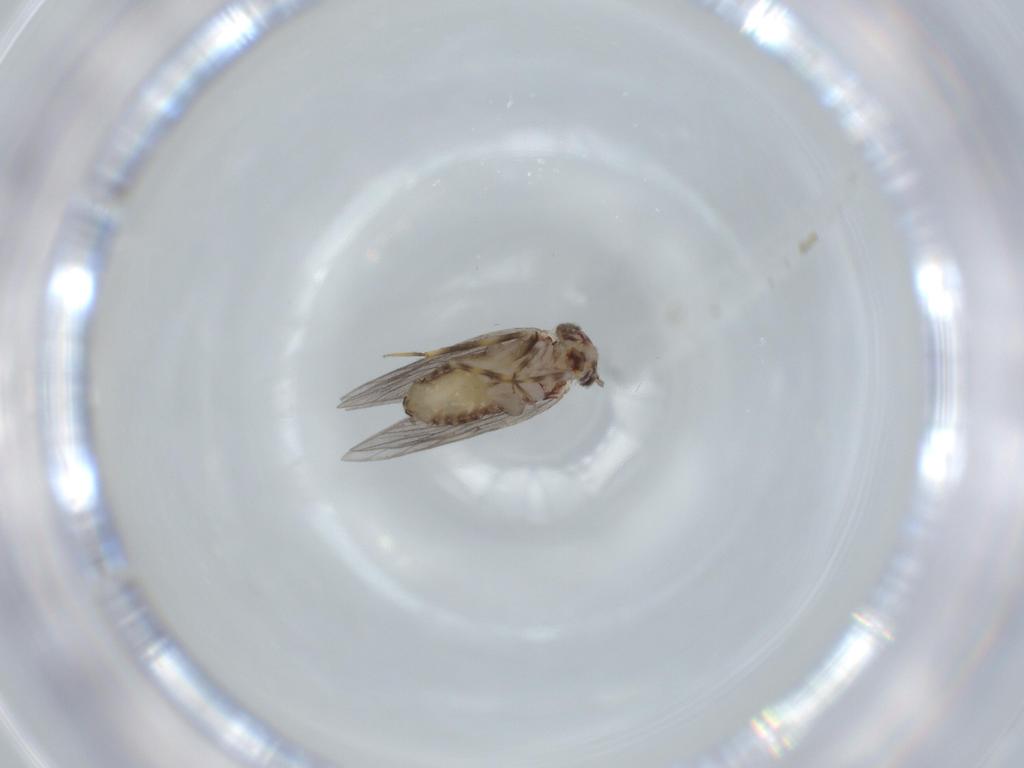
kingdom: Animalia
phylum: Arthropoda
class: Insecta
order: Psocodea
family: Lepidopsocidae
